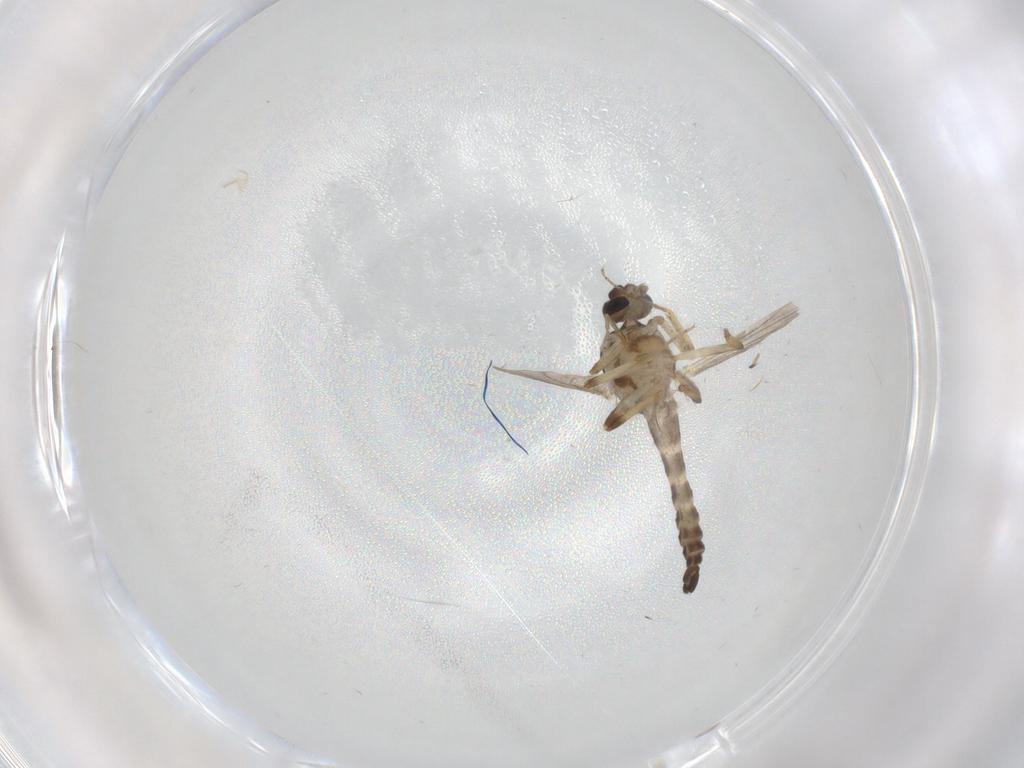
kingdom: Animalia
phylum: Arthropoda
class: Insecta
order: Diptera
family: Ceratopogonidae
